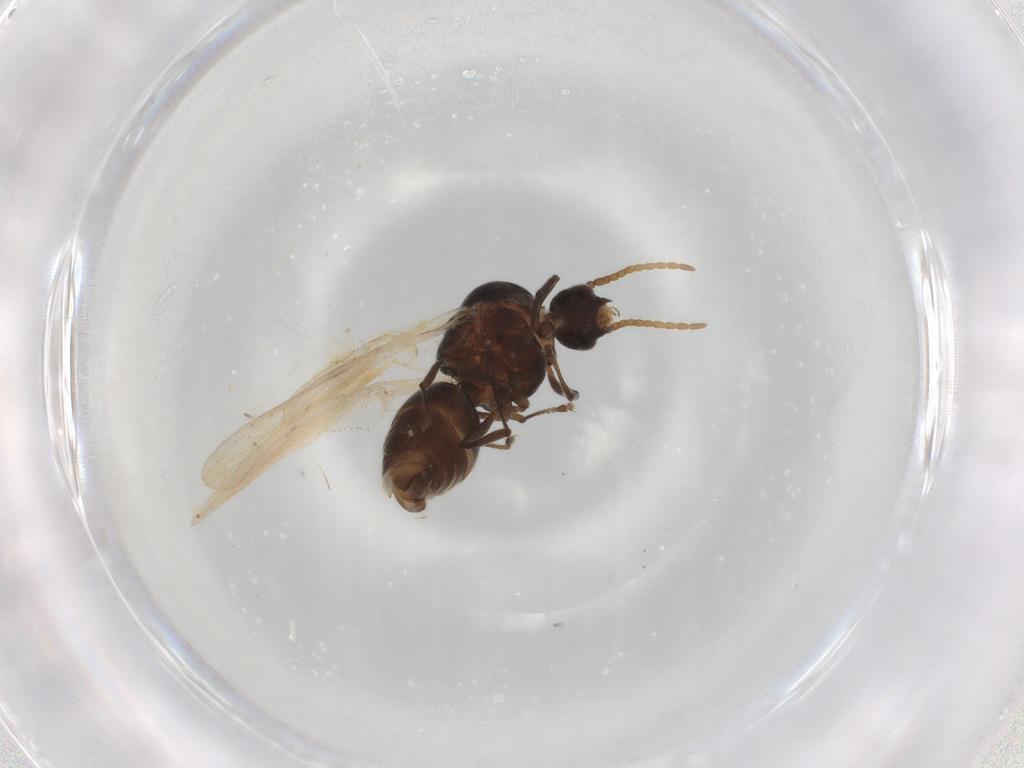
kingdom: Animalia
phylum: Arthropoda
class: Insecta
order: Hymenoptera
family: Formicidae
